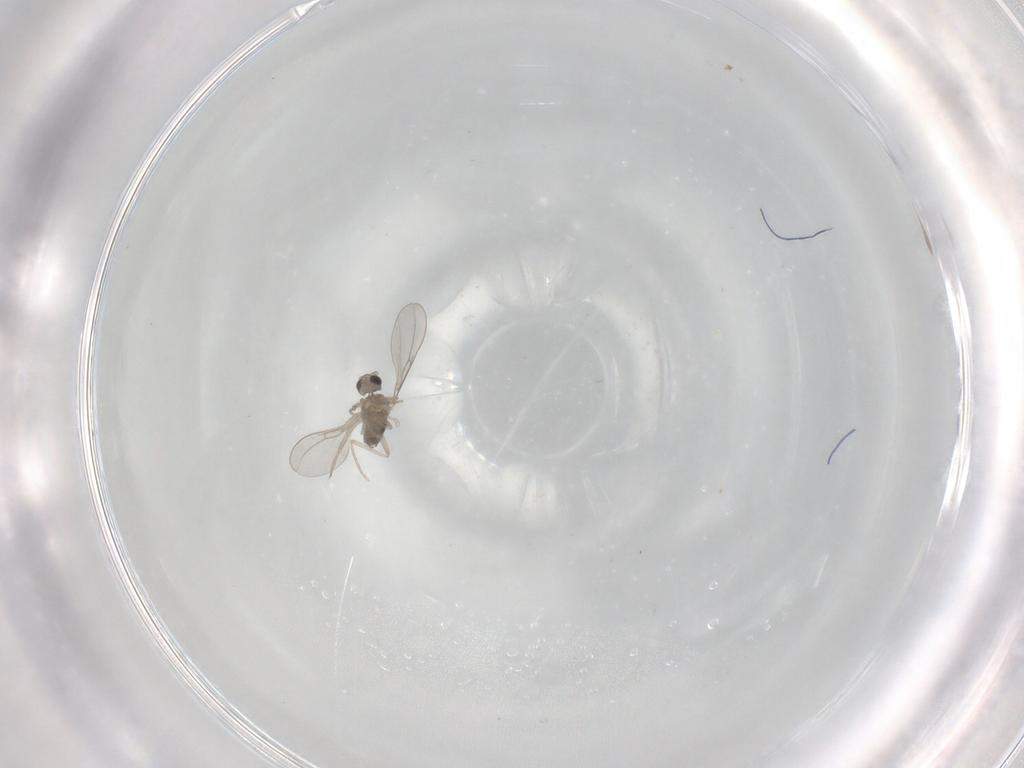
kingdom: Animalia
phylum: Arthropoda
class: Insecta
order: Diptera
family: Cecidomyiidae
